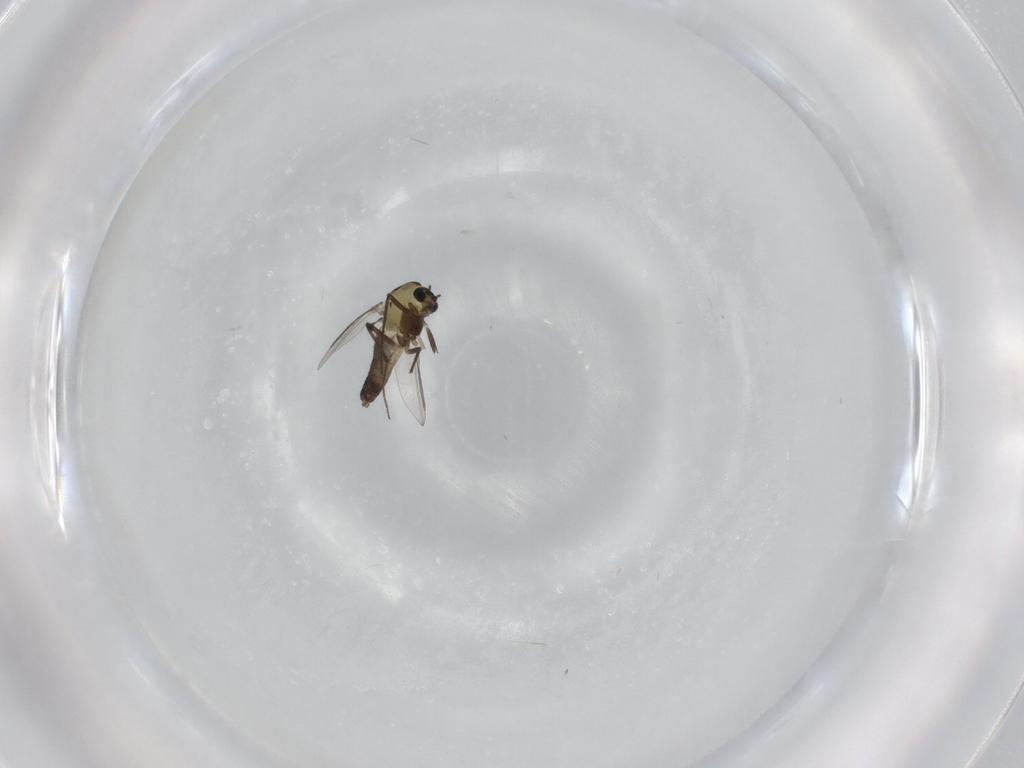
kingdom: Animalia
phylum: Arthropoda
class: Insecta
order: Diptera
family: Chironomidae
